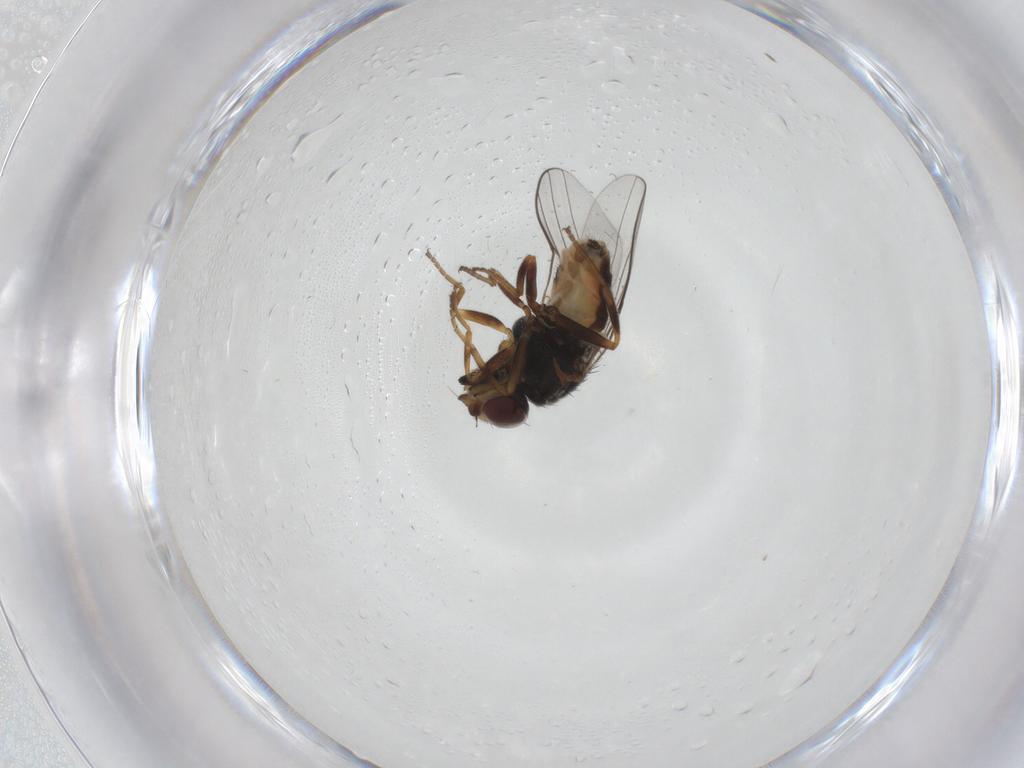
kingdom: Animalia
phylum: Arthropoda
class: Insecta
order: Diptera
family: Chloropidae
